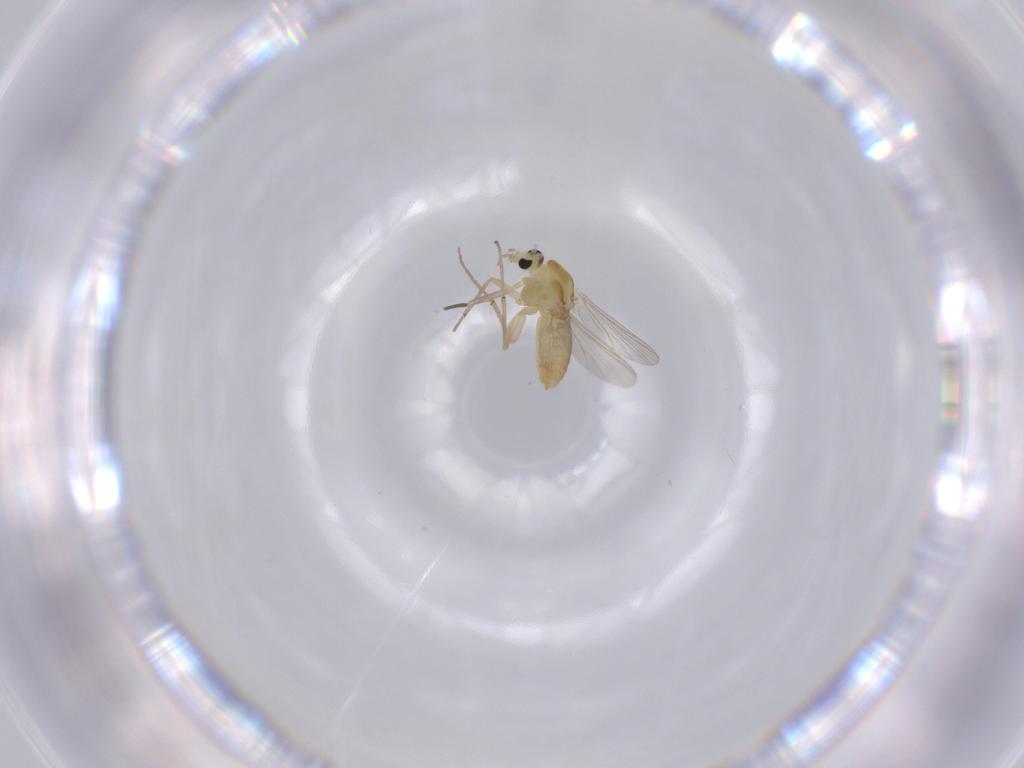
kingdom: Animalia
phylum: Arthropoda
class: Insecta
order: Diptera
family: Chironomidae
